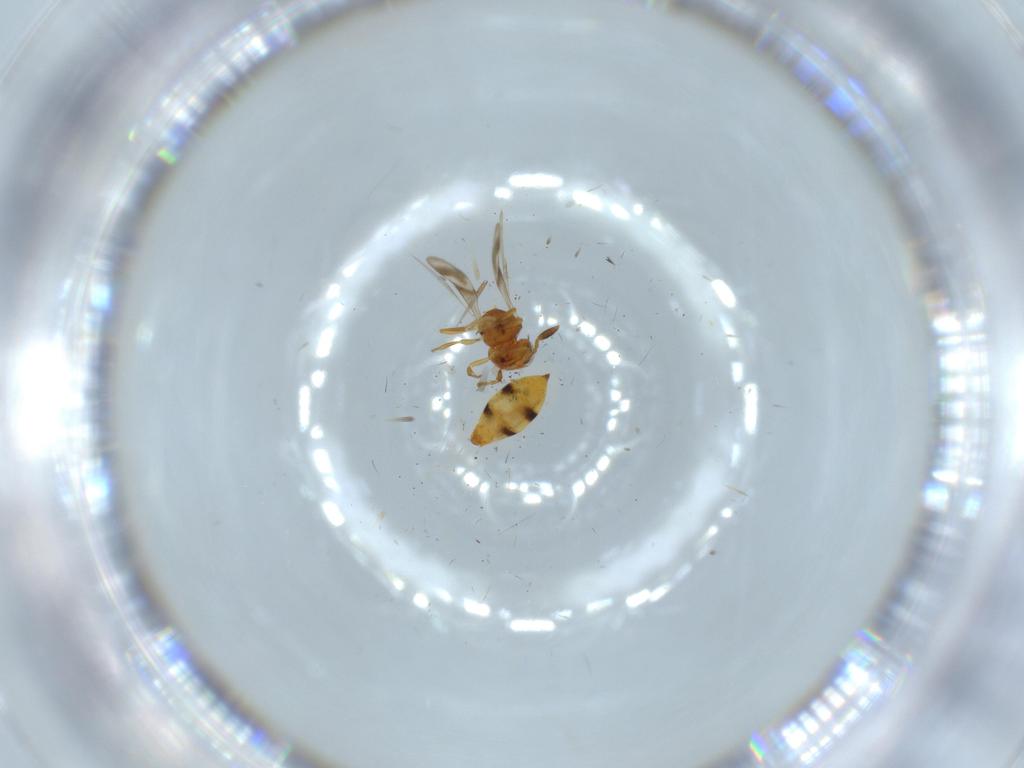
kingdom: Animalia
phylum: Arthropoda
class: Insecta
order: Hymenoptera
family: Scelionidae
